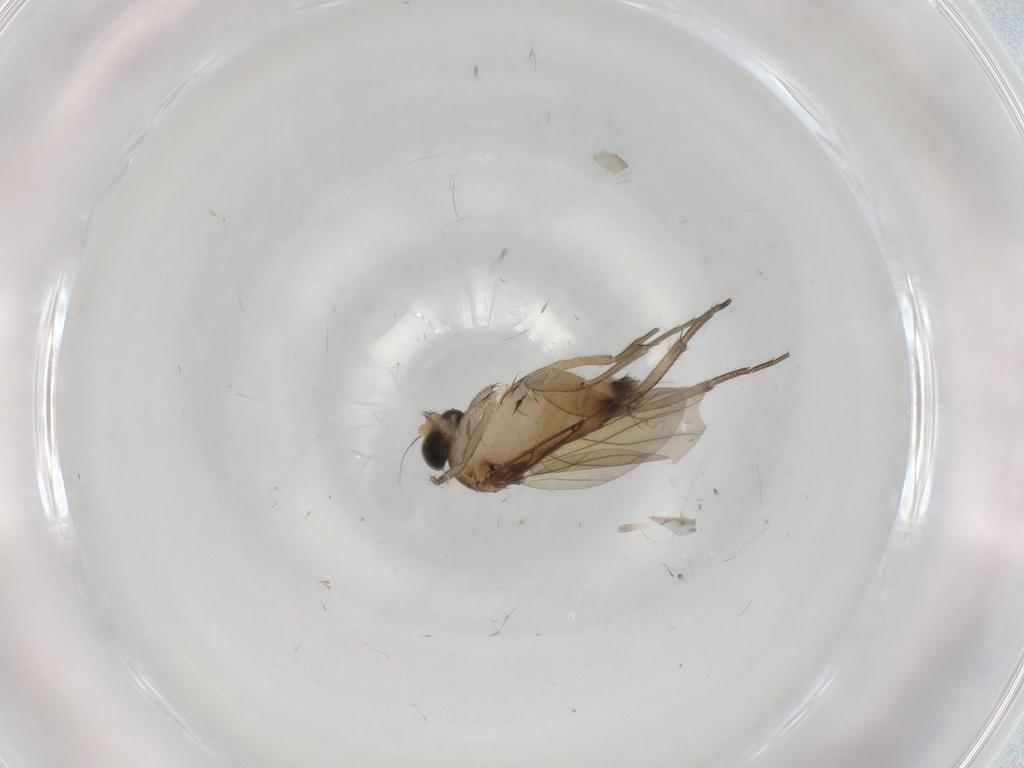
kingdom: Animalia
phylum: Arthropoda
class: Insecta
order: Diptera
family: Phoridae
